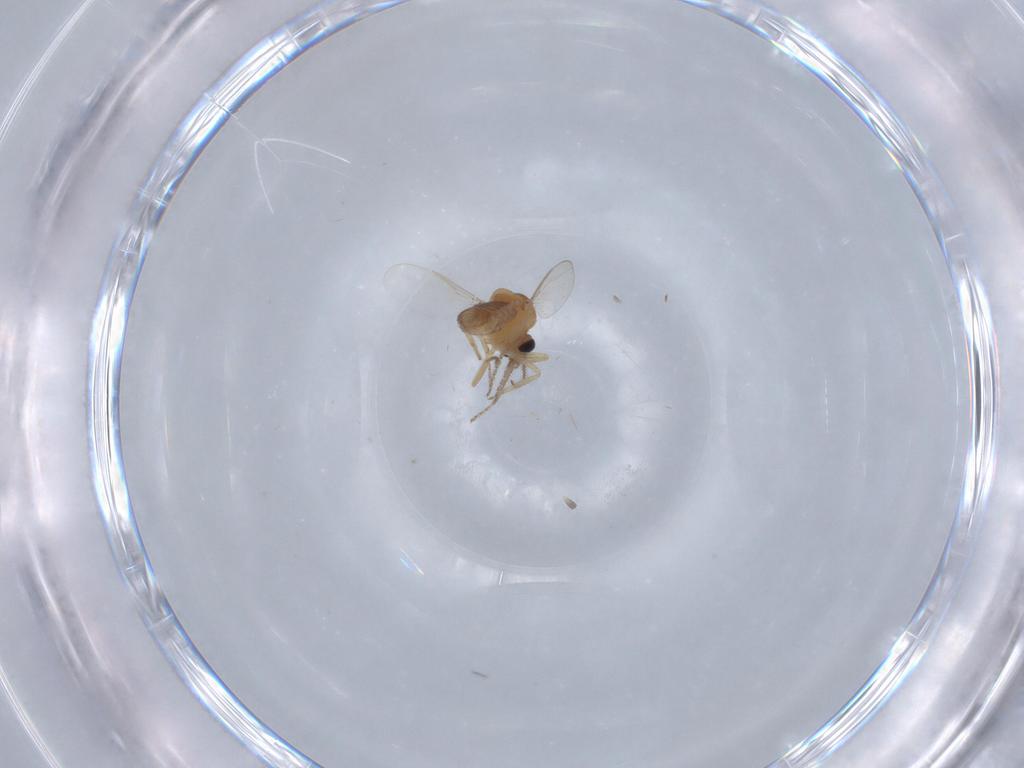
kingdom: Animalia
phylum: Arthropoda
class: Insecta
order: Diptera
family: Ceratopogonidae
